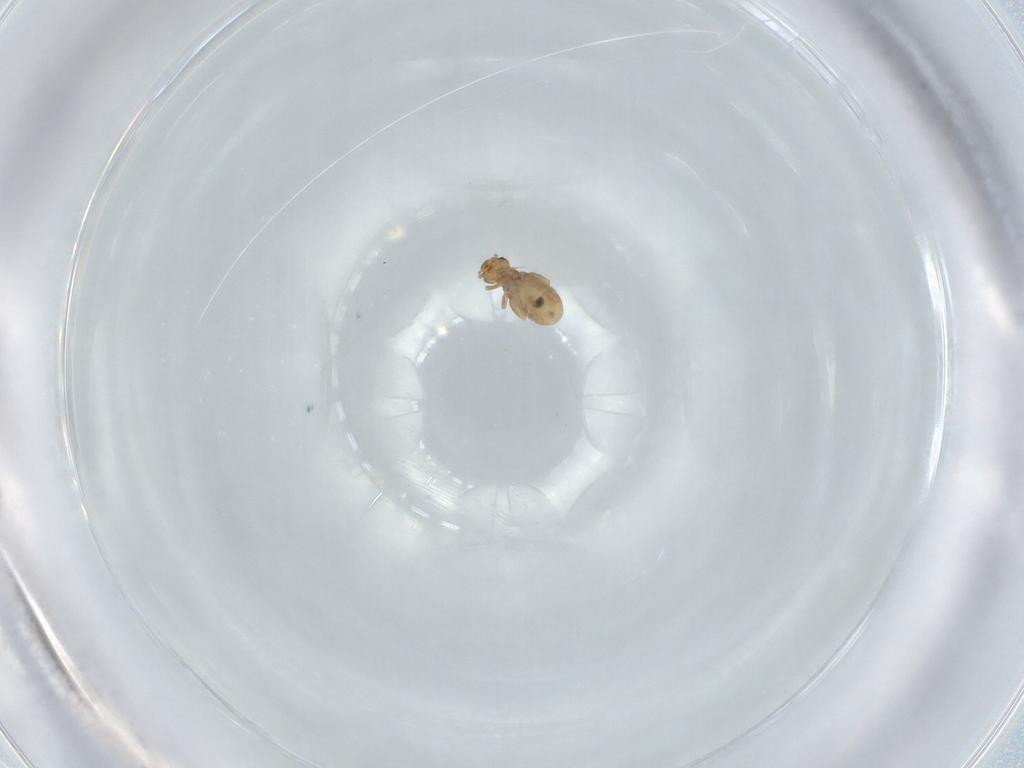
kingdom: Animalia
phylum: Arthropoda
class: Insecta
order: Psocodea
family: Liposcelididae
